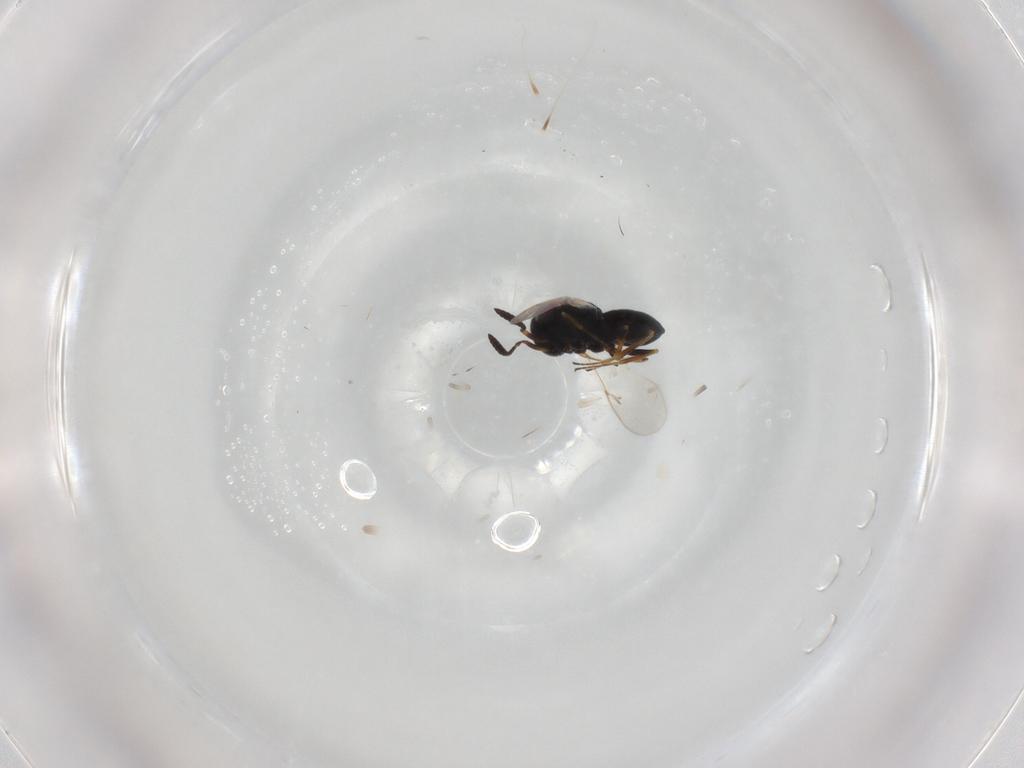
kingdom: Animalia
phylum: Arthropoda
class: Insecta
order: Coleoptera
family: Curculionidae
